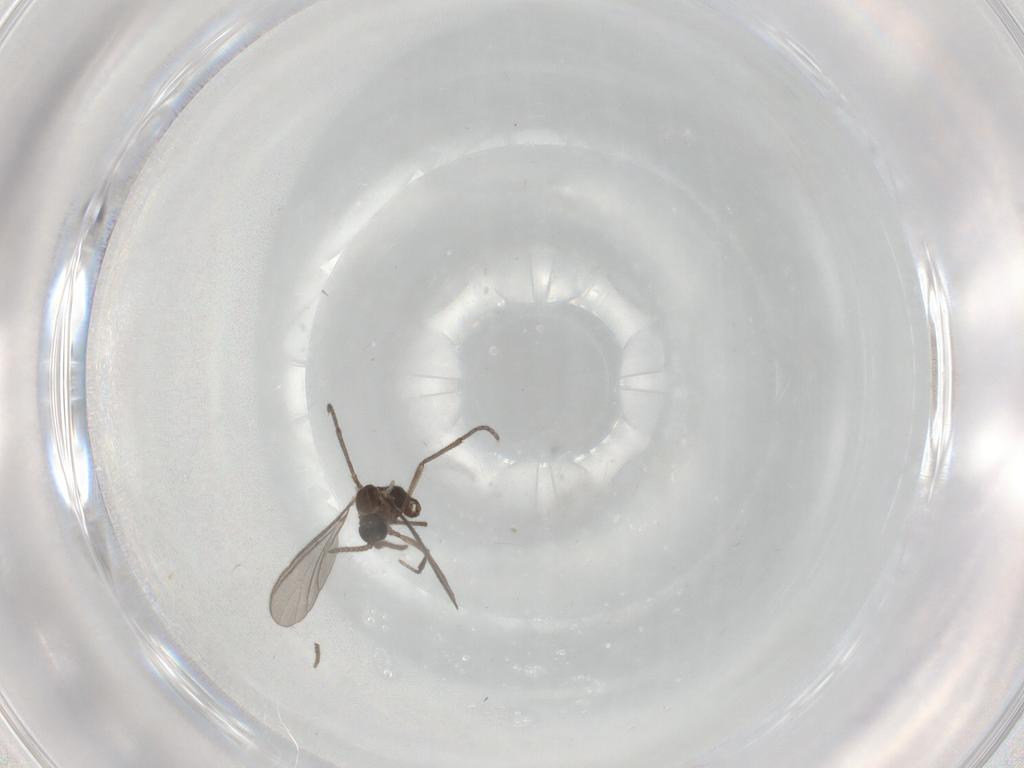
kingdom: Animalia
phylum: Arthropoda
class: Insecta
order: Diptera
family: Sciaridae
